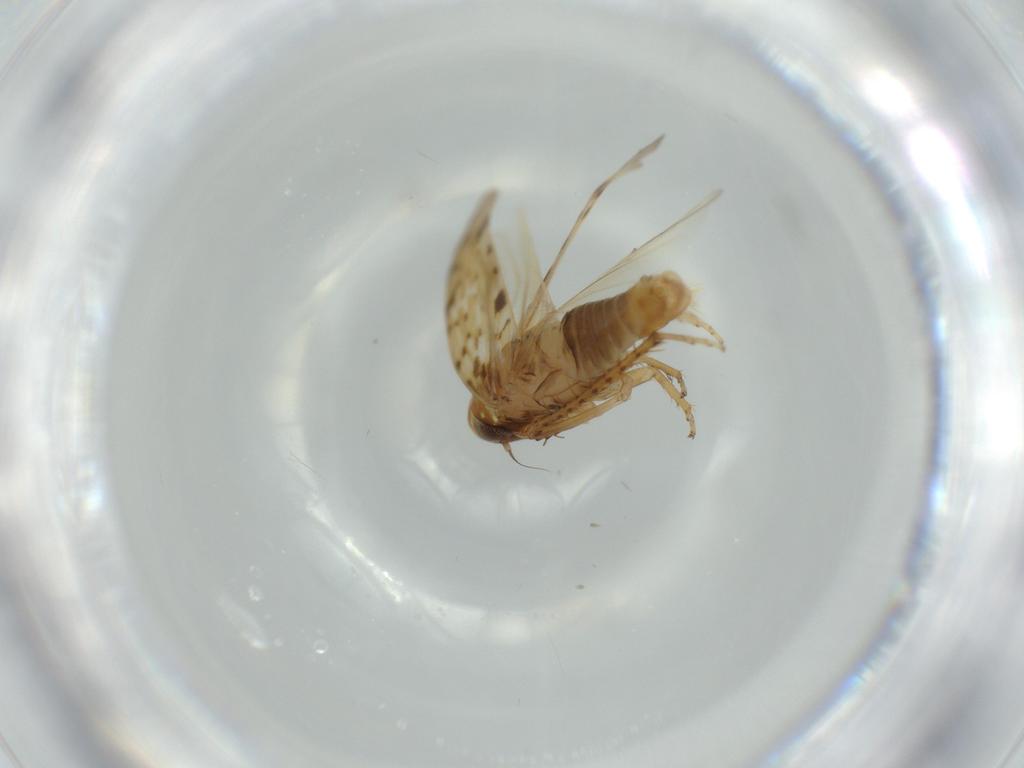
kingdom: Animalia
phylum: Arthropoda
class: Insecta
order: Hemiptera
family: Cicadellidae
